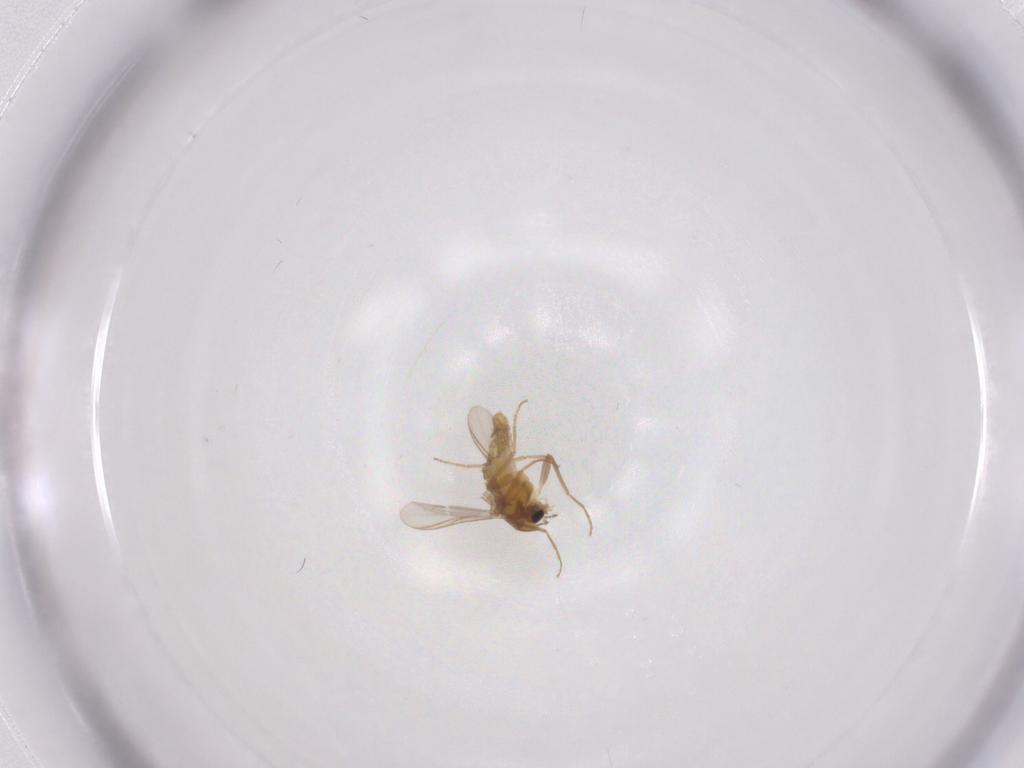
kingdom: Animalia
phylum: Arthropoda
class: Insecta
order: Diptera
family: Chironomidae
